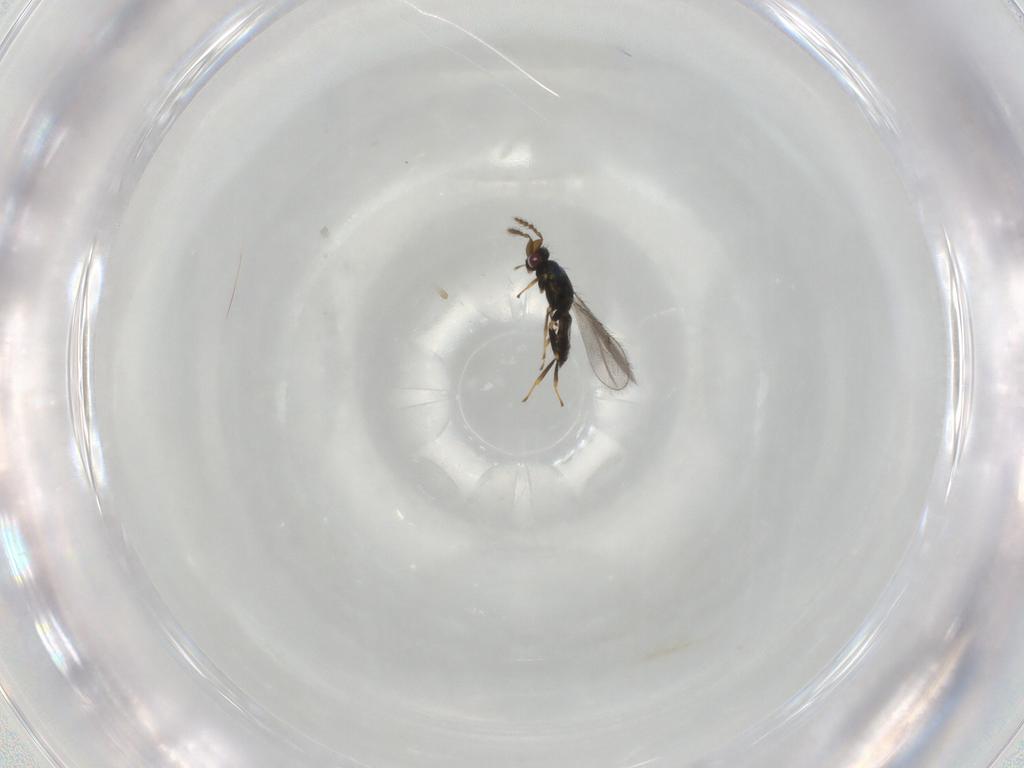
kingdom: Animalia
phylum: Arthropoda
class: Insecta
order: Hymenoptera
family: Eulophidae
